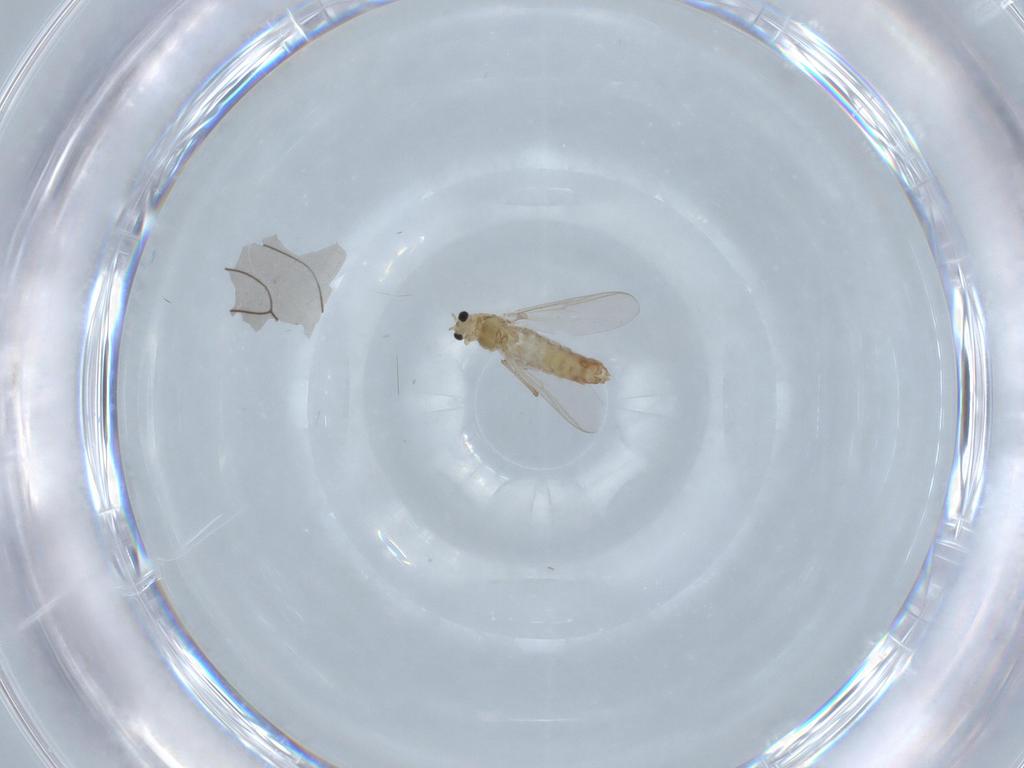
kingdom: Animalia
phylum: Arthropoda
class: Insecta
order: Diptera
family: Chironomidae
